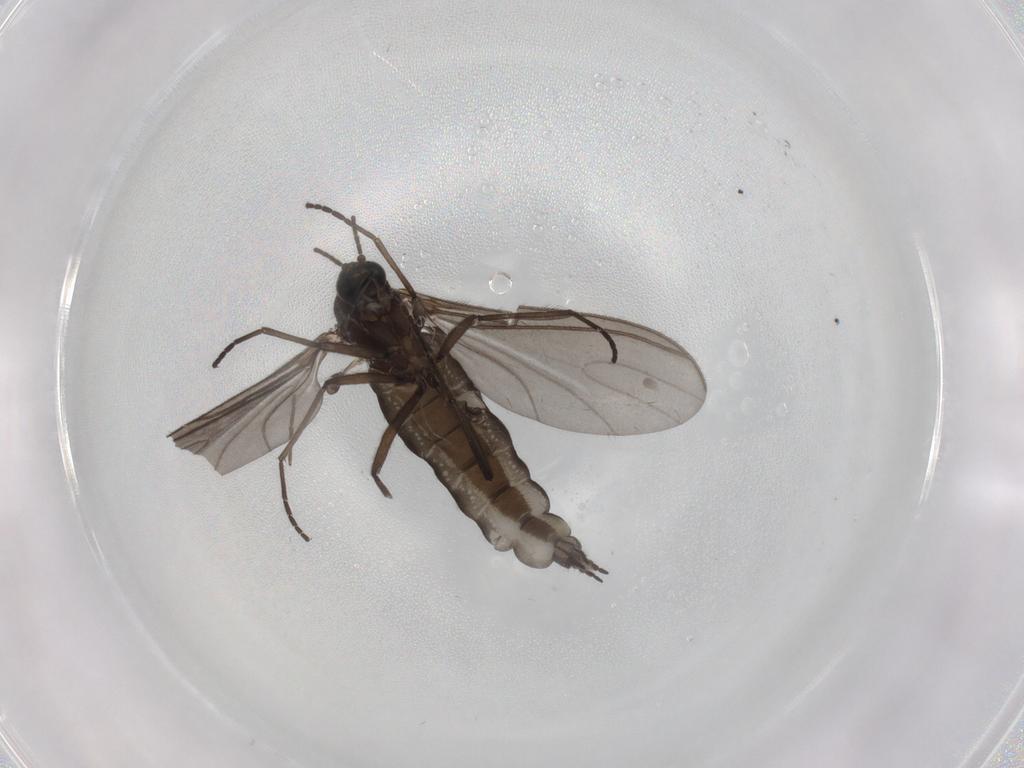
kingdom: Animalia
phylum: Arthropoda
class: Insecta
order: Diptera
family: Sciaridae
